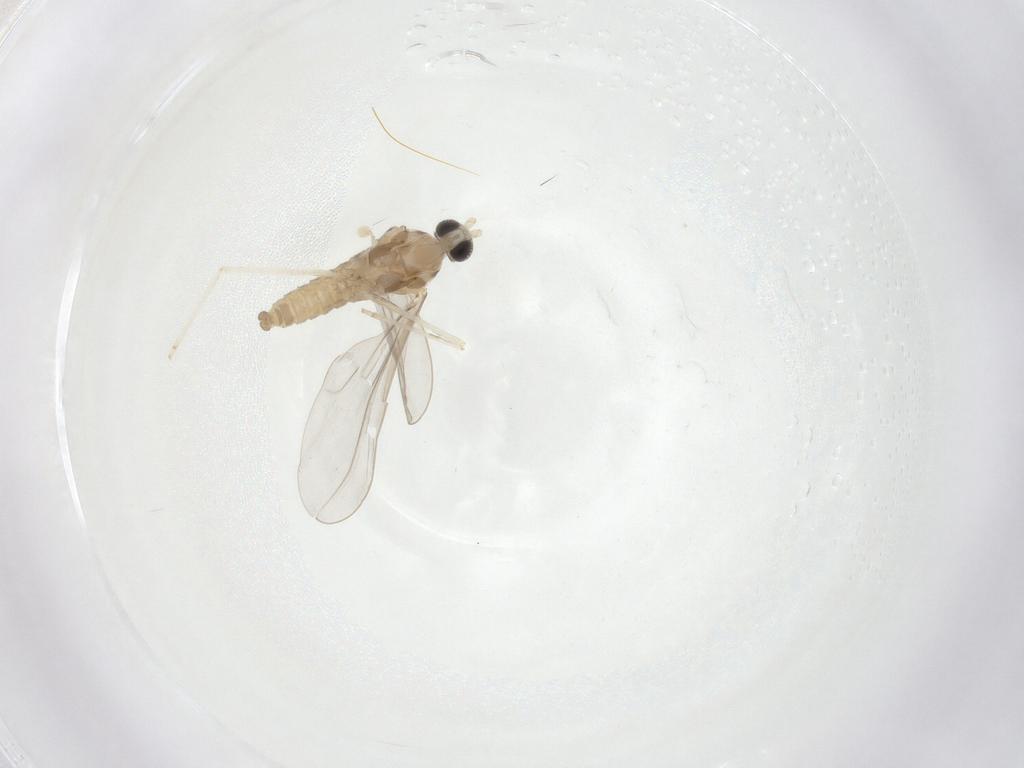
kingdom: Animalia
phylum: Arthropoda
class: Insecta
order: Diptera
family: Cecidomyiidae
